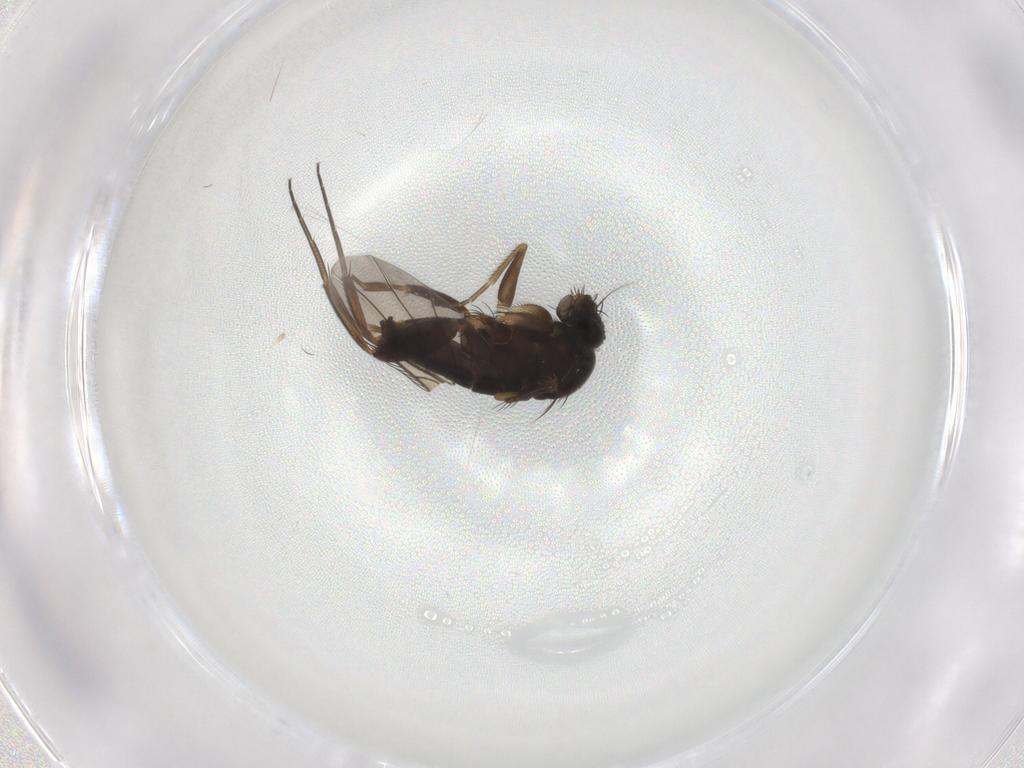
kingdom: Animalia
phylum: Arthropoda
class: Insecta
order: Diptera
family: Phoridae
